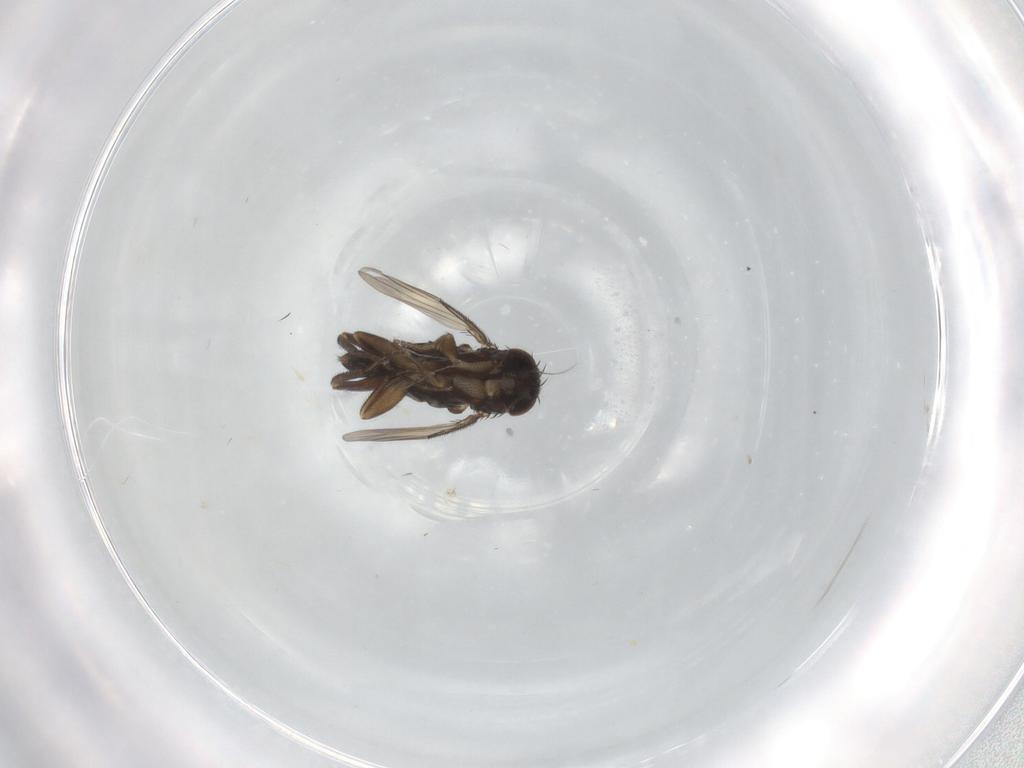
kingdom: Animalia
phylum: Arthropoda
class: Insecta
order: Diptera
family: Phoridae
